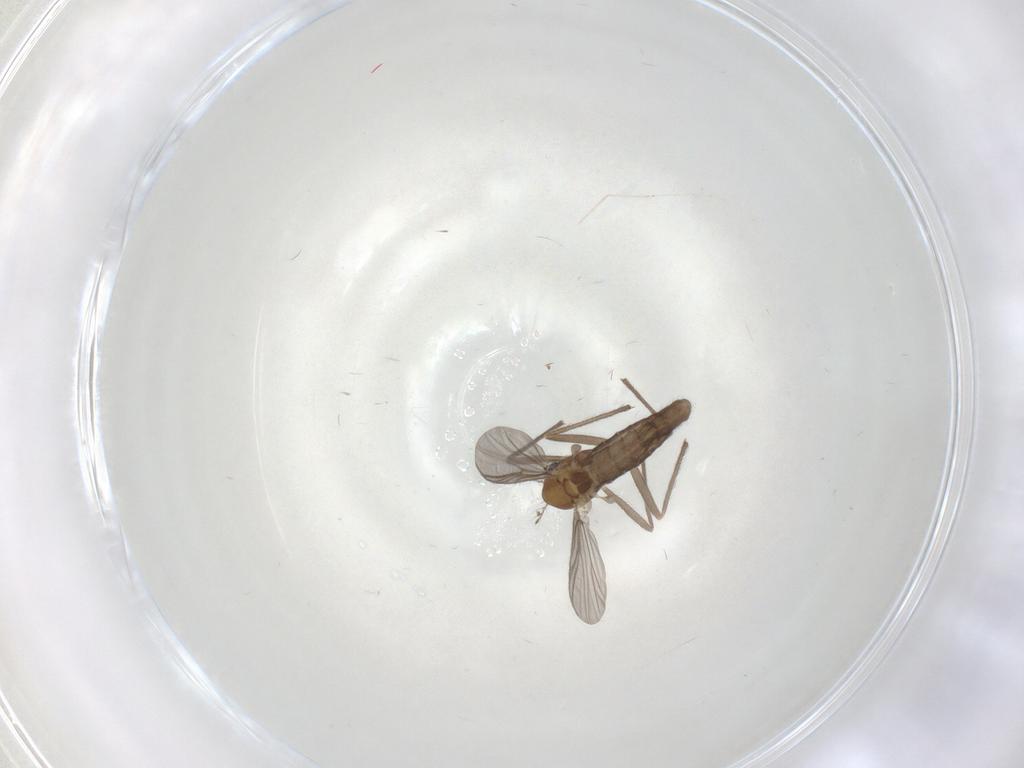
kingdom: Animalia
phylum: Arthropoda
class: Insecta
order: Diptera
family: Chironomidae
